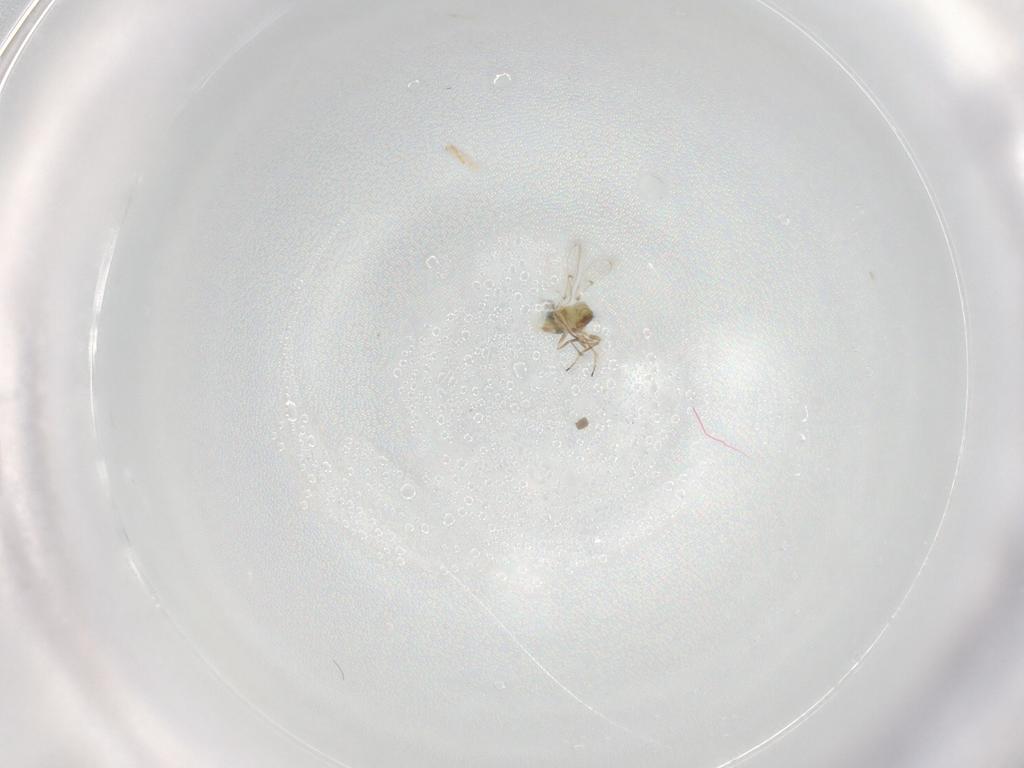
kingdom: Animalia
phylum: Arthropoda
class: Insecta
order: Hymenoptera
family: Trichogrammatidae
